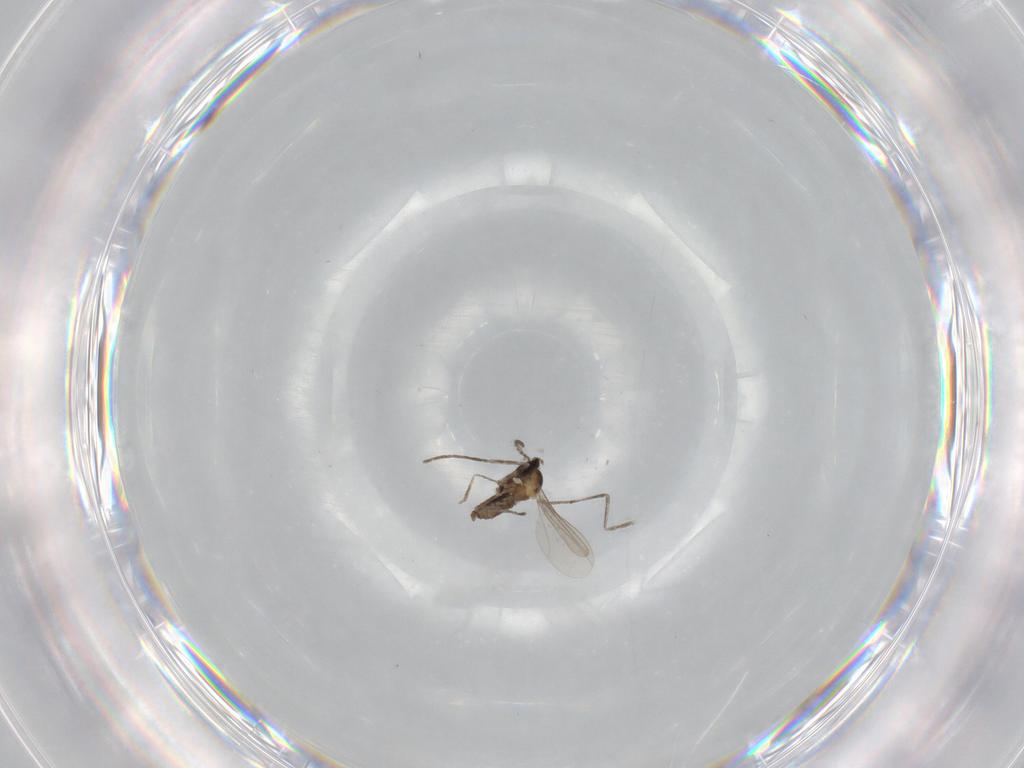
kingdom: Animalia
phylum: Arthropoda
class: Insecta
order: Diptera
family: Cecidomyiidae
